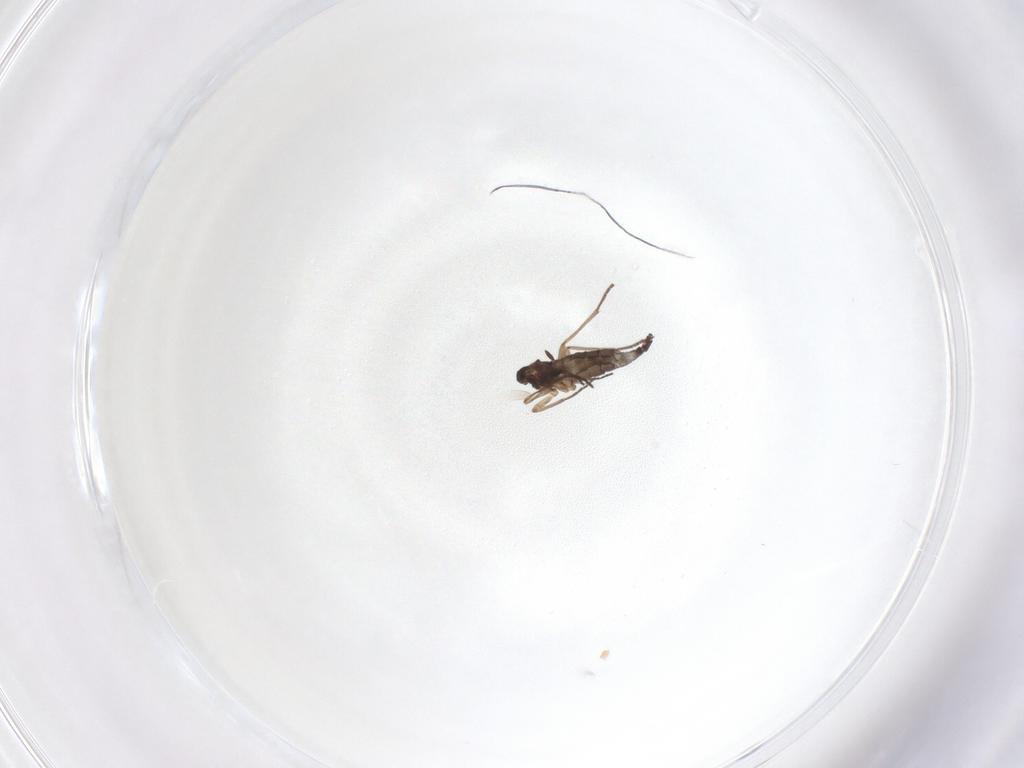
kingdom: Animalia
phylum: Arthropoda
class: Insecta
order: Diptera
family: Sciaridae
